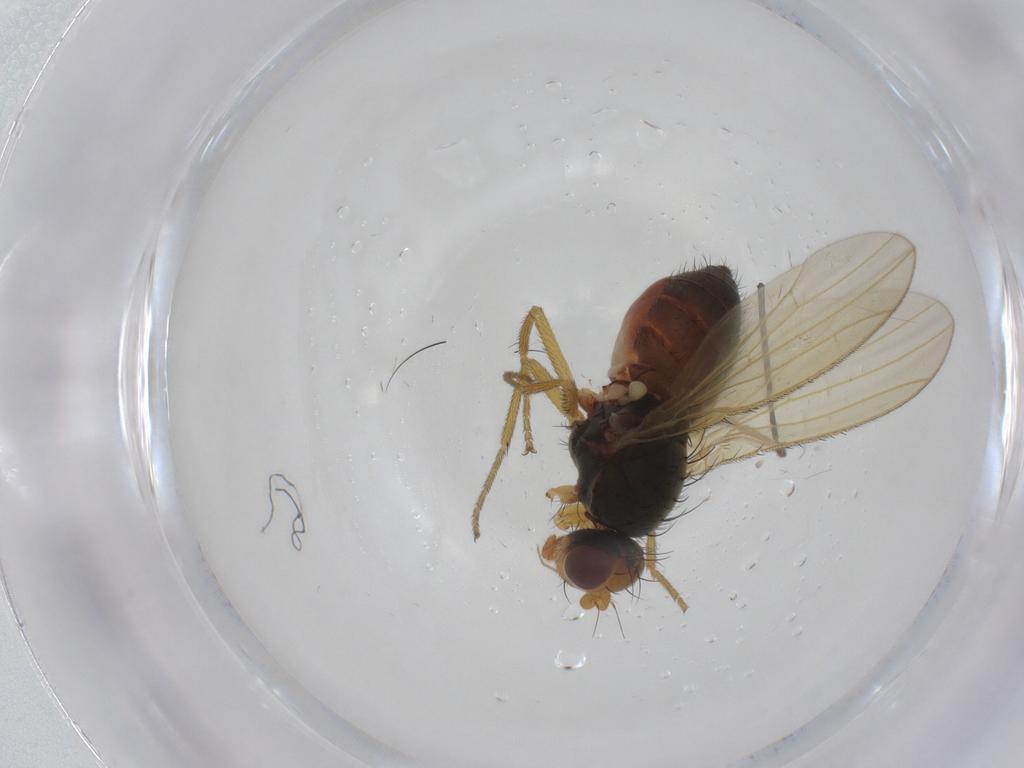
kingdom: Animalia
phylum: Arthropoda
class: Insecta
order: Diptera
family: Heleomyzidae
